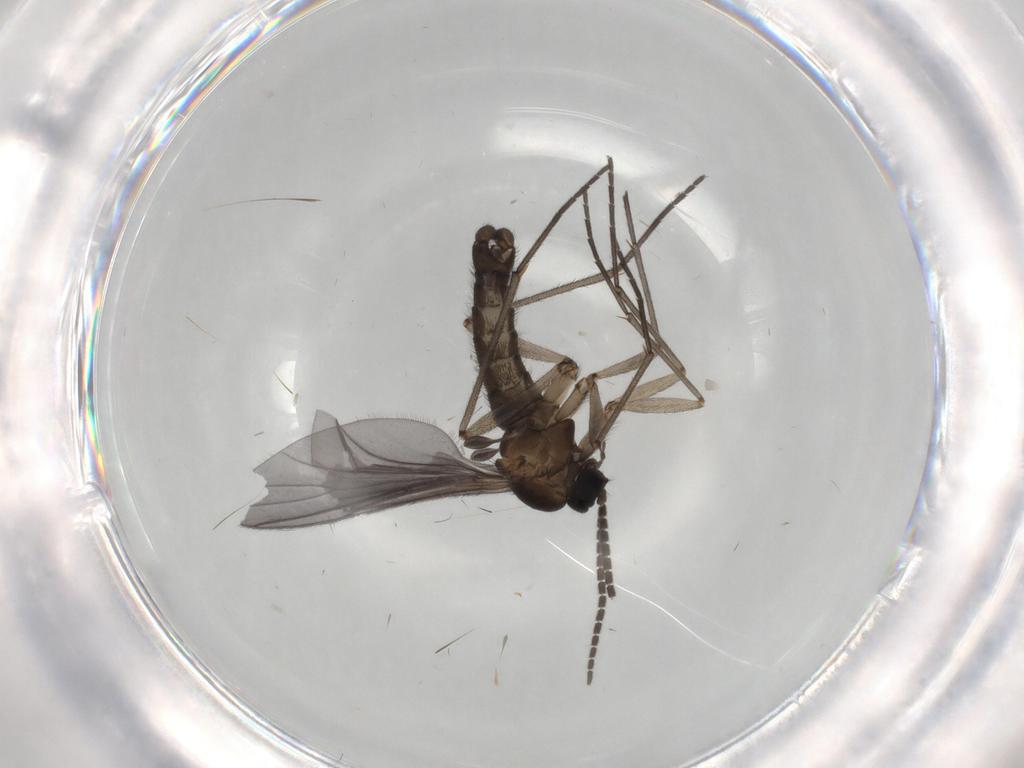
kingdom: Animalia
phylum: Arthropoda
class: Insecta
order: Diptera
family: Sciaridae
